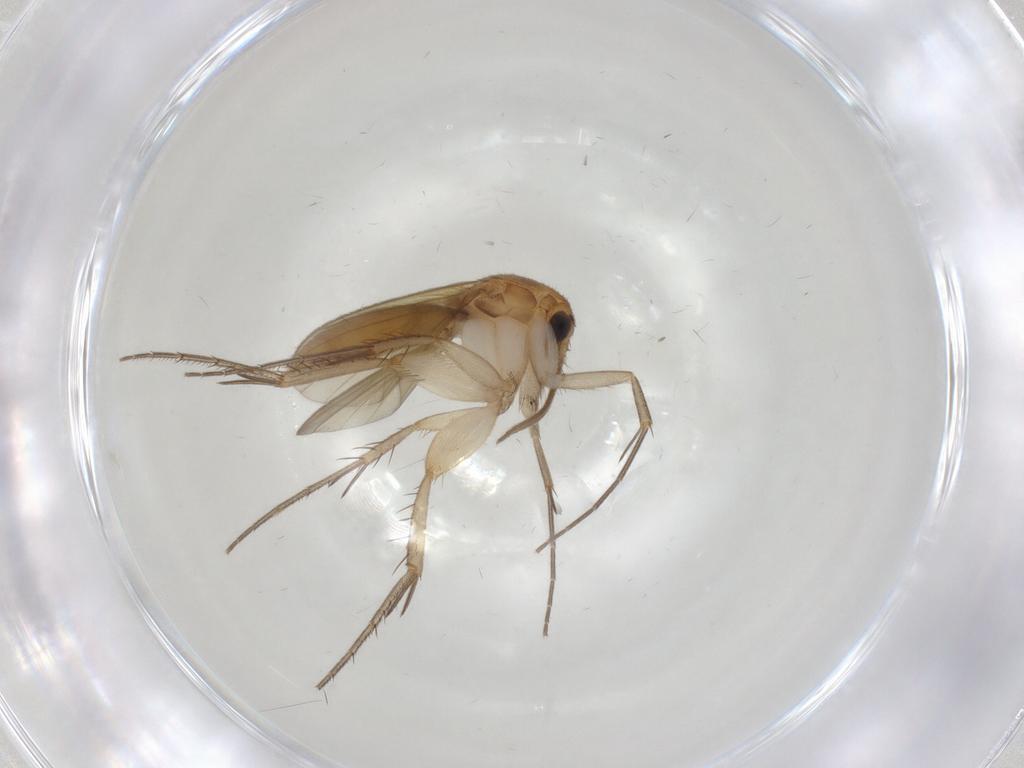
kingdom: Animalia
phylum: Arthropoda
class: Insecta
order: Diptera
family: Mycetophilidae
